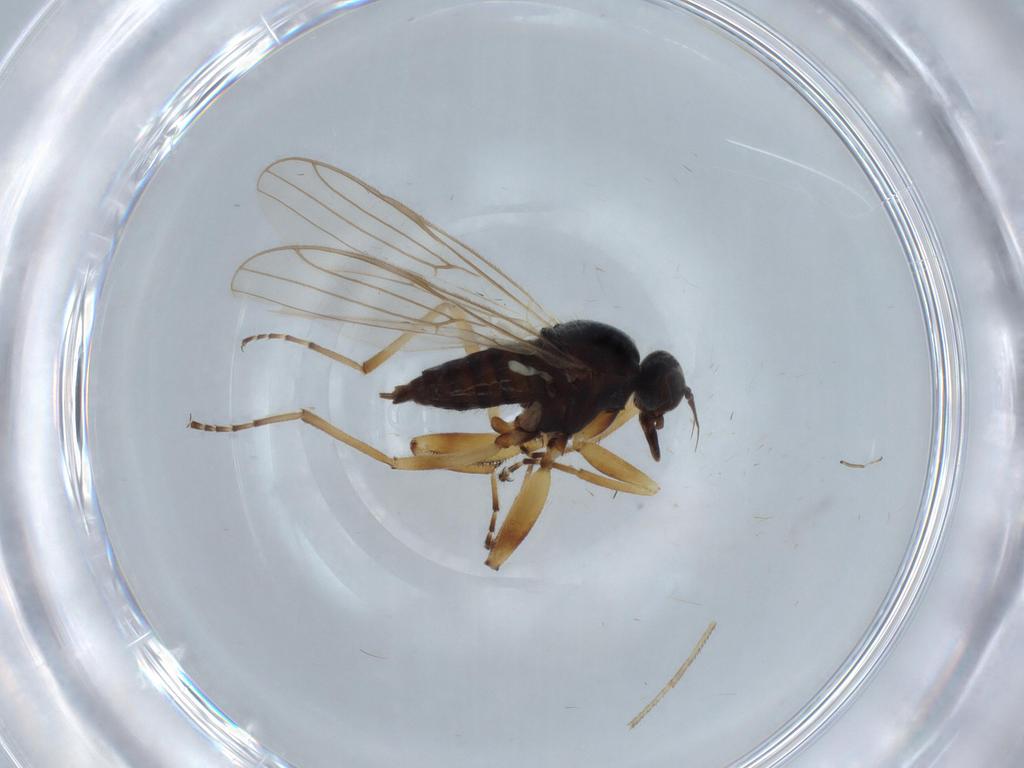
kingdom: Animalia
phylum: Arthropoda
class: Insecta
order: Diptera
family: Hybotidae
